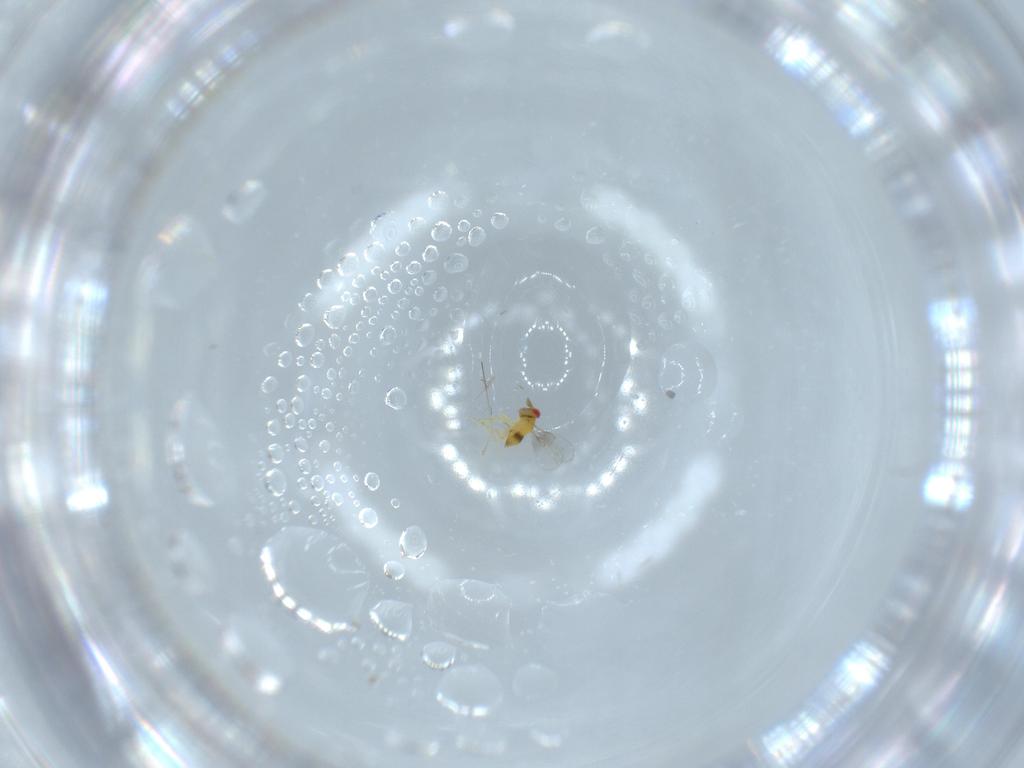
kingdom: Animalia
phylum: Arthropoda
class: Insecta
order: Hymenoptera
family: Trichogrammatidae
